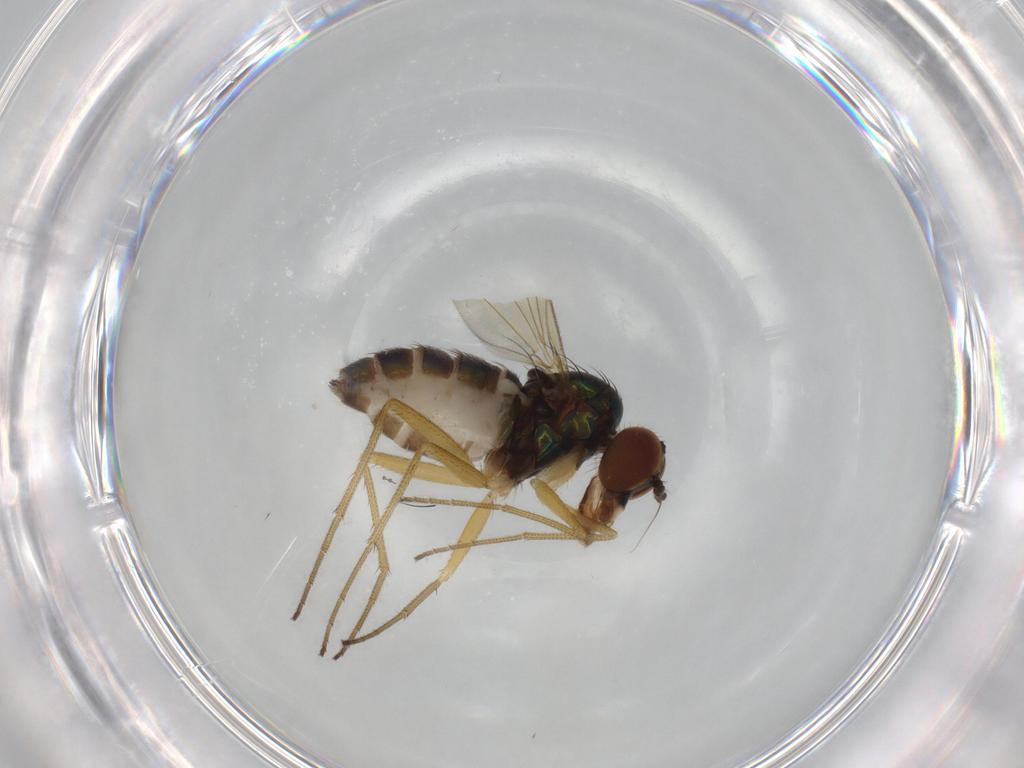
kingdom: Animalia
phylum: Arthropoda
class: Insecta
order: Diptera
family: Dolichopodidae
